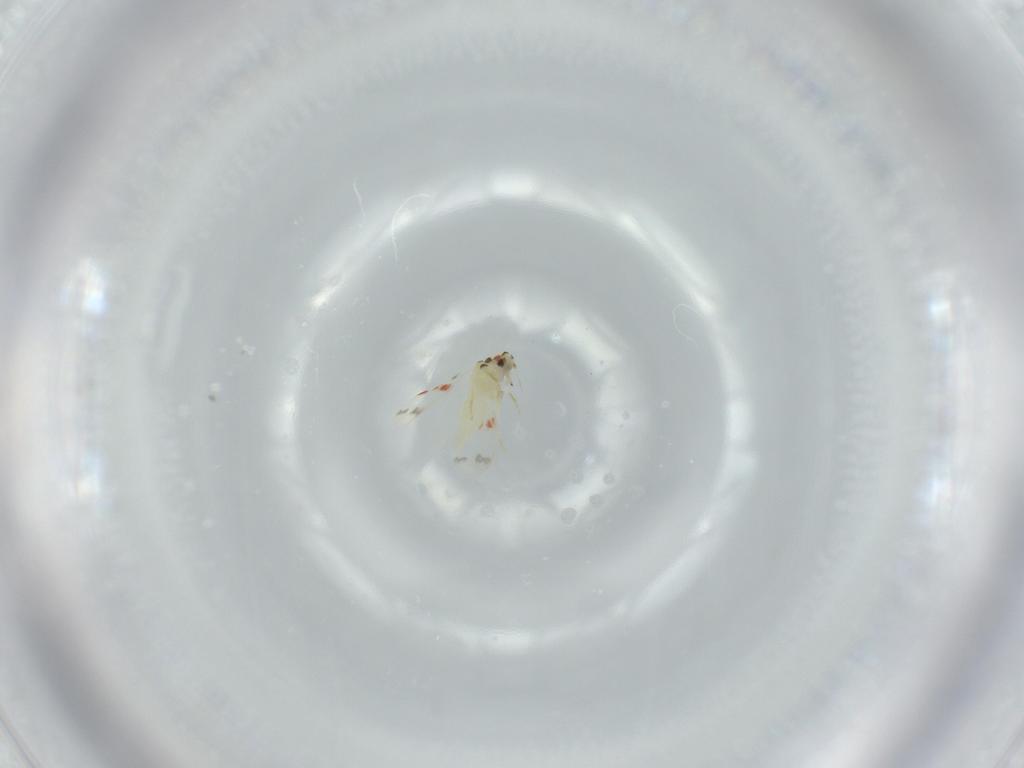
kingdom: Animalia
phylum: Arthropoda
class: Insecta
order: Hemiptera
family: Aleyrodidae
